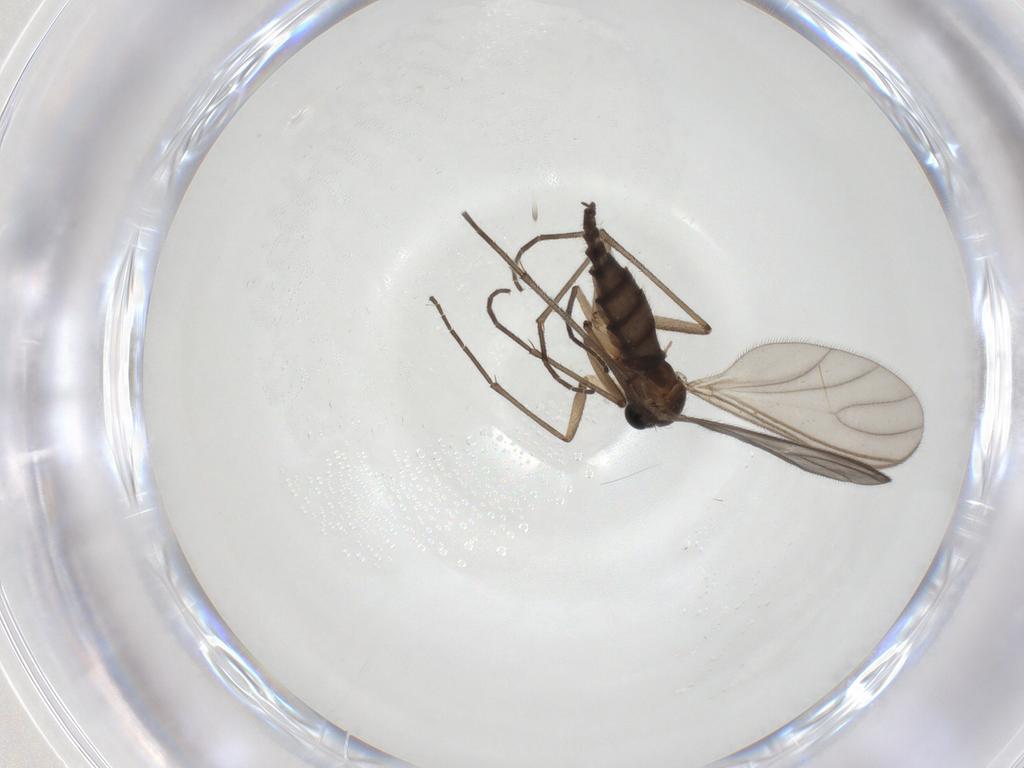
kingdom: Animalia
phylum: Arthropoda
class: Insecta
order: Diptera
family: Sciaridae
